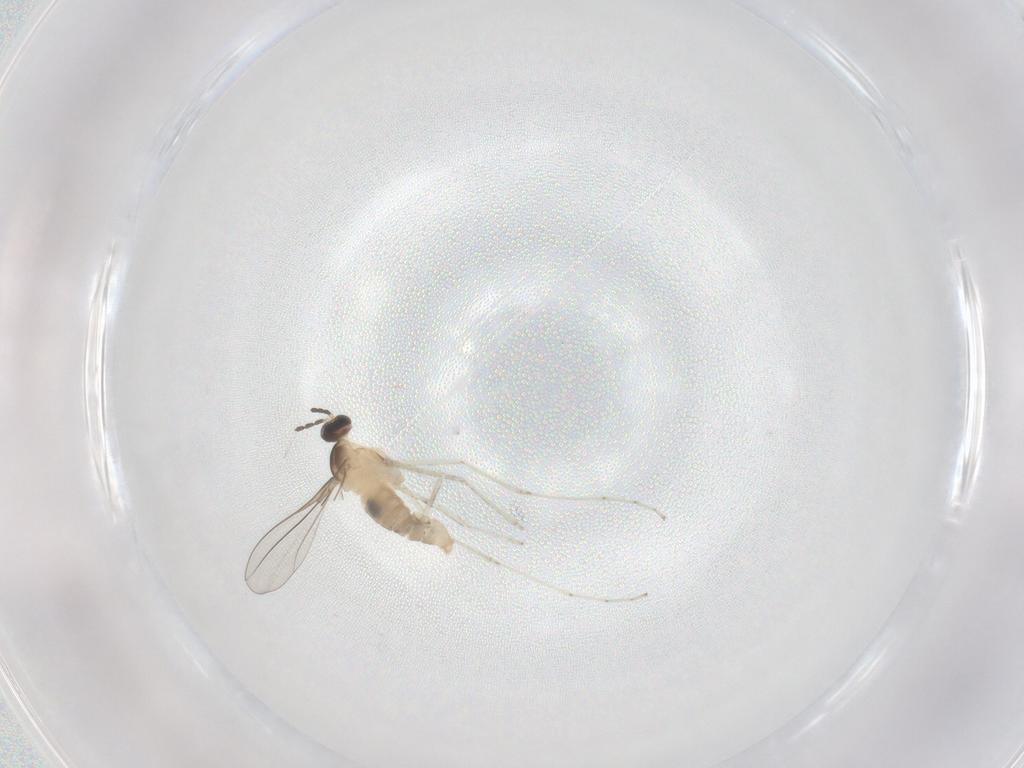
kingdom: Animalia
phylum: Arthropoda
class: Insecta
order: Diptera
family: Cecidomyiidae
